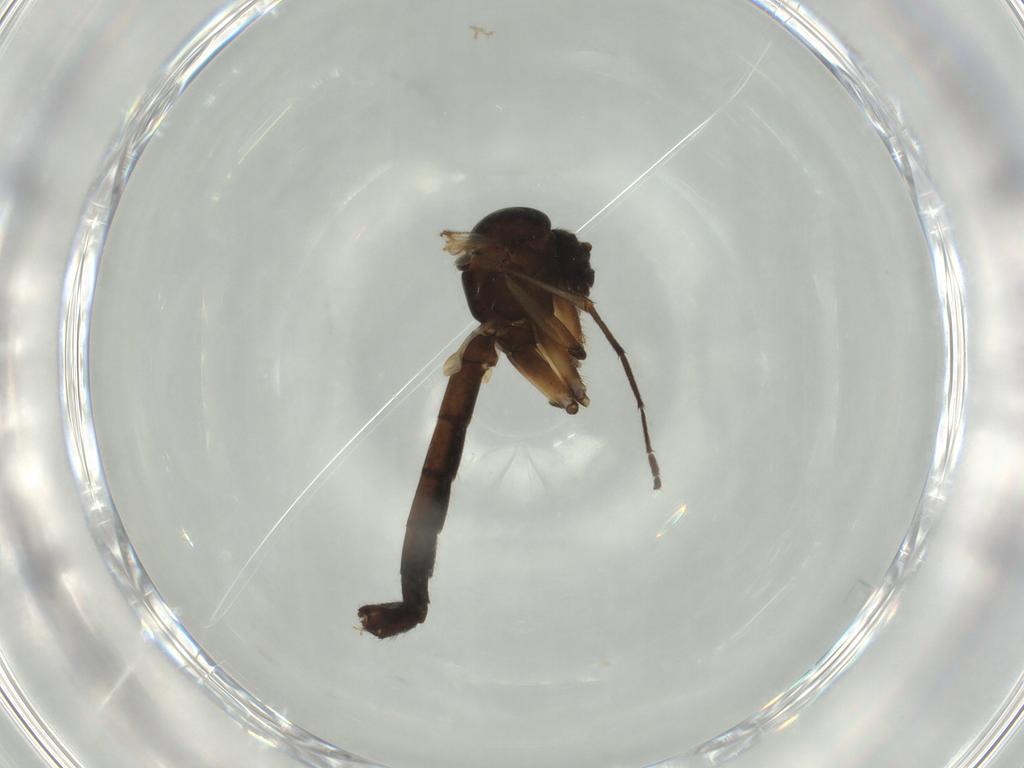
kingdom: Animalia
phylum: Arthropoda
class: Insecta
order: Diptera
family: Mycetophilidae
